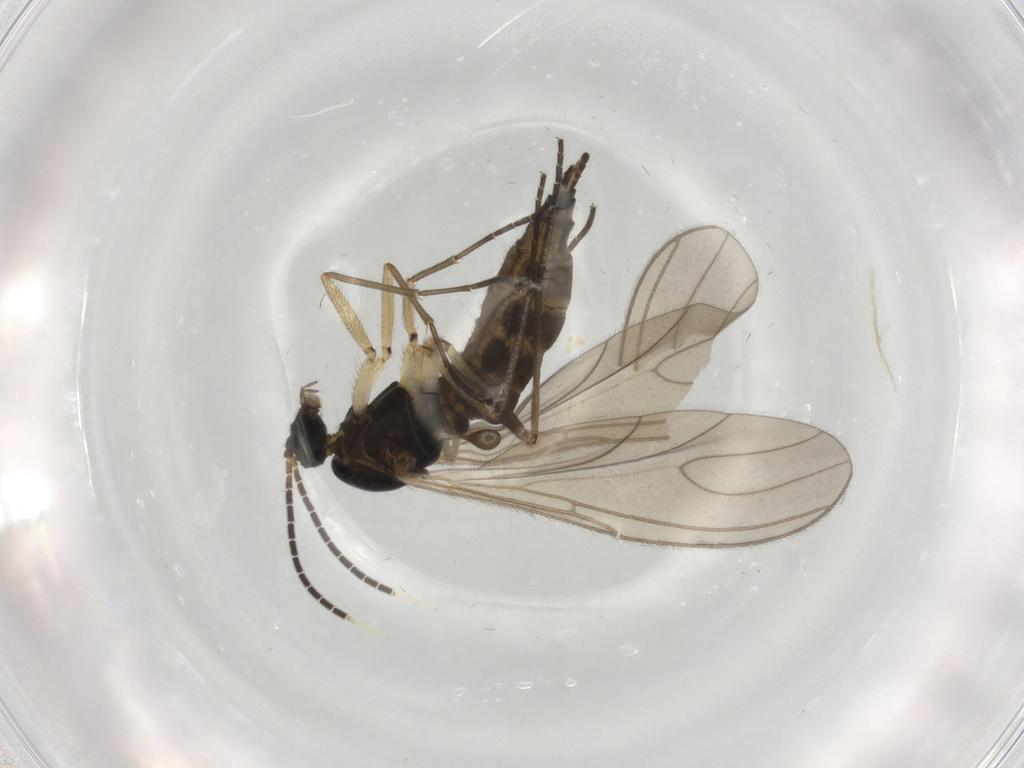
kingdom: Animalia
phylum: Arthropoda
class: Insecta
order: Diptera
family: Sciaridae
